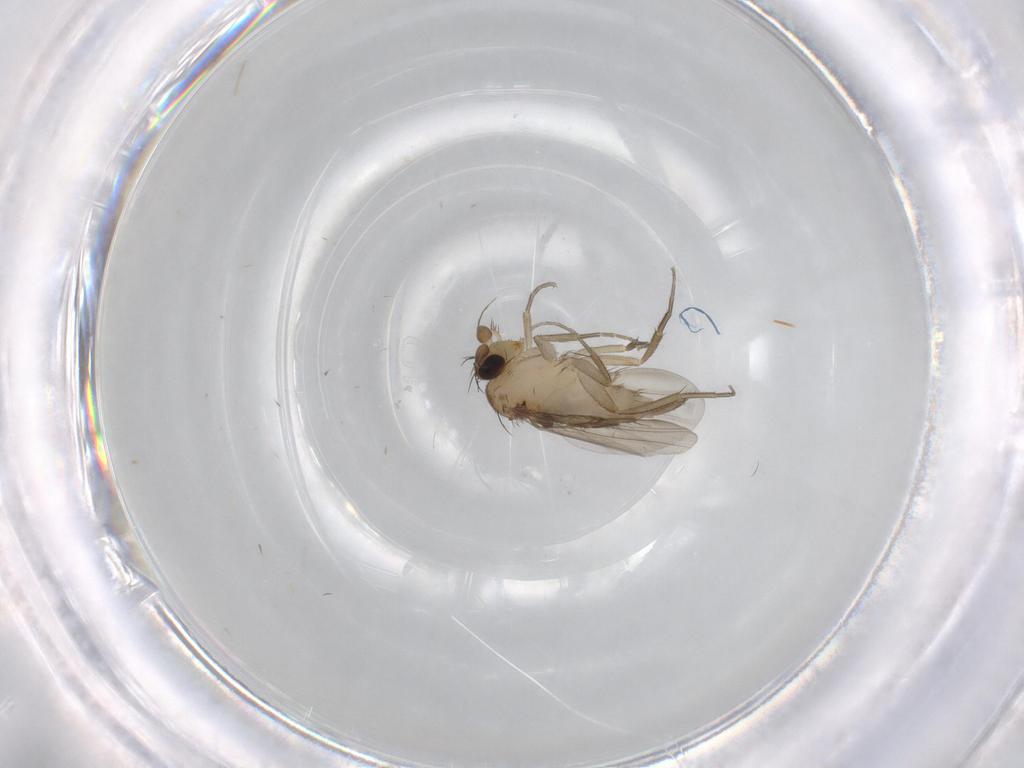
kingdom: Animalia
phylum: Arthropoda
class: Insecta
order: Diptera
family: Phoridae
